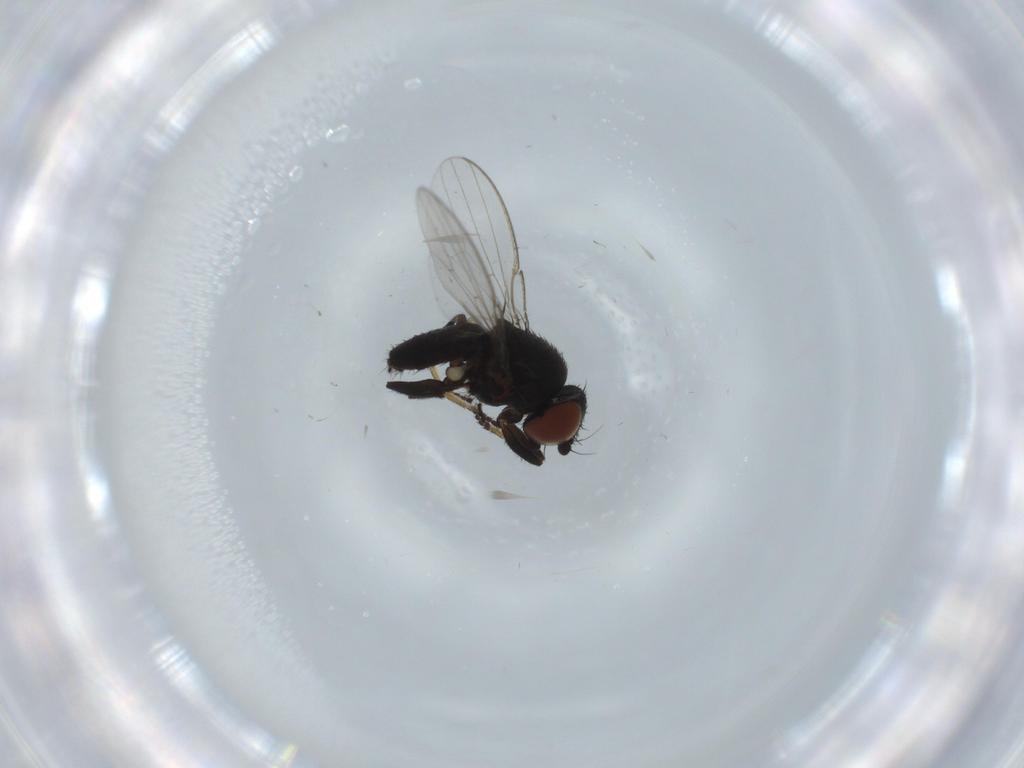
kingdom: Animalia
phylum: Arthropoda
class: Insecta
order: Diptera
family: Milichiidae
